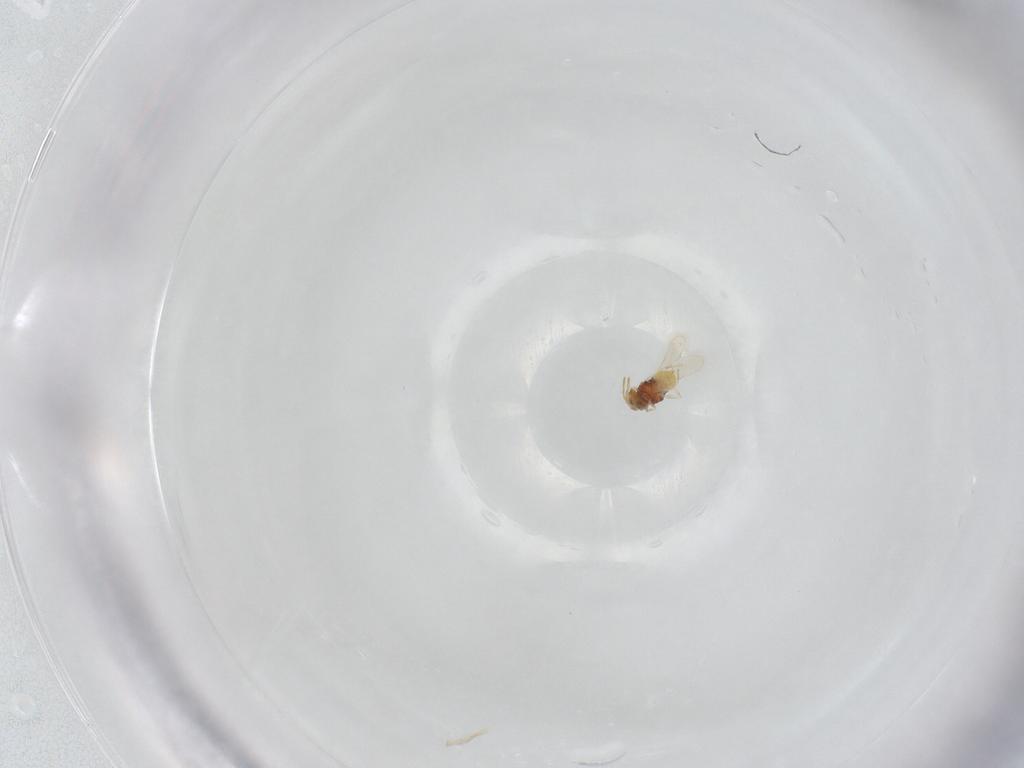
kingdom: Animalia
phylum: Arthropoda
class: Insecta
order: Hymenoptera
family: Aphelinidae
